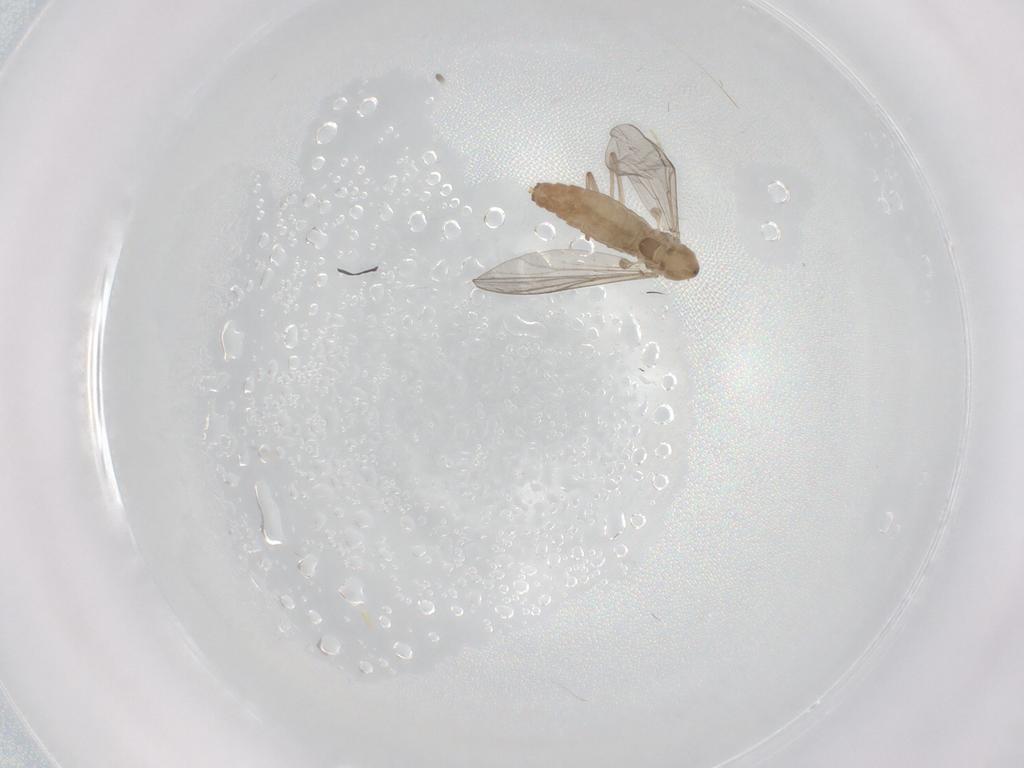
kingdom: Animalia
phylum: Arthropoda
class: Insecta
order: Diptera
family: Chironomidae
